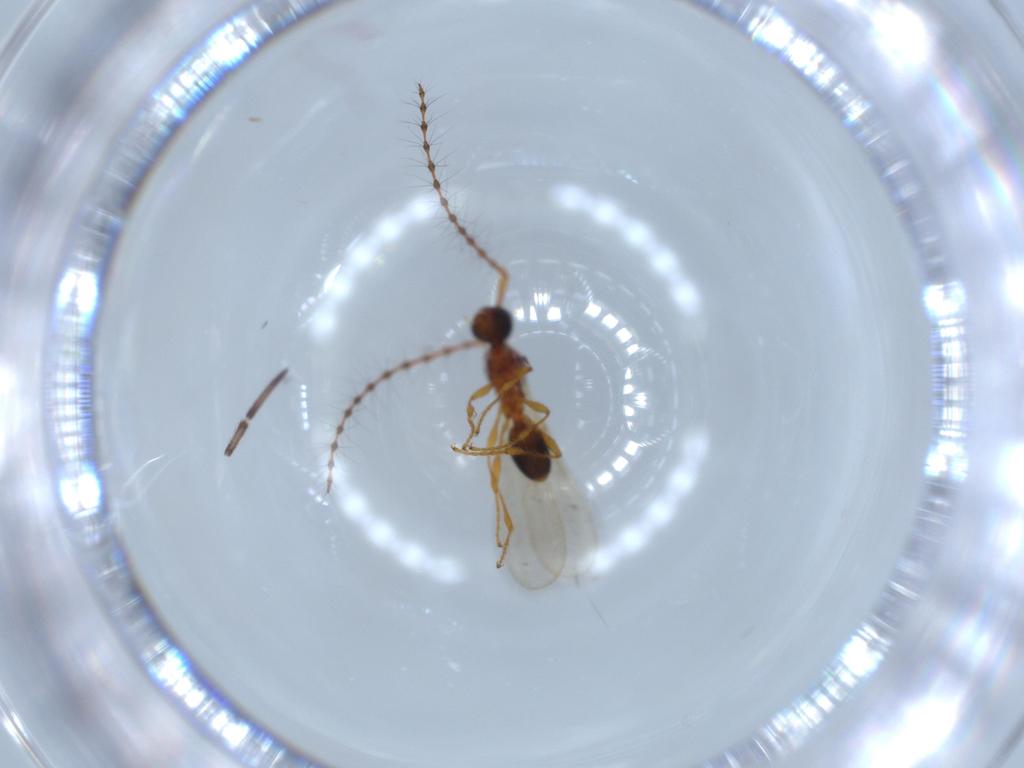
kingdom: Animalia
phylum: Arthropoda
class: Insecta
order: Hymenoptera
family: Diapriidae
